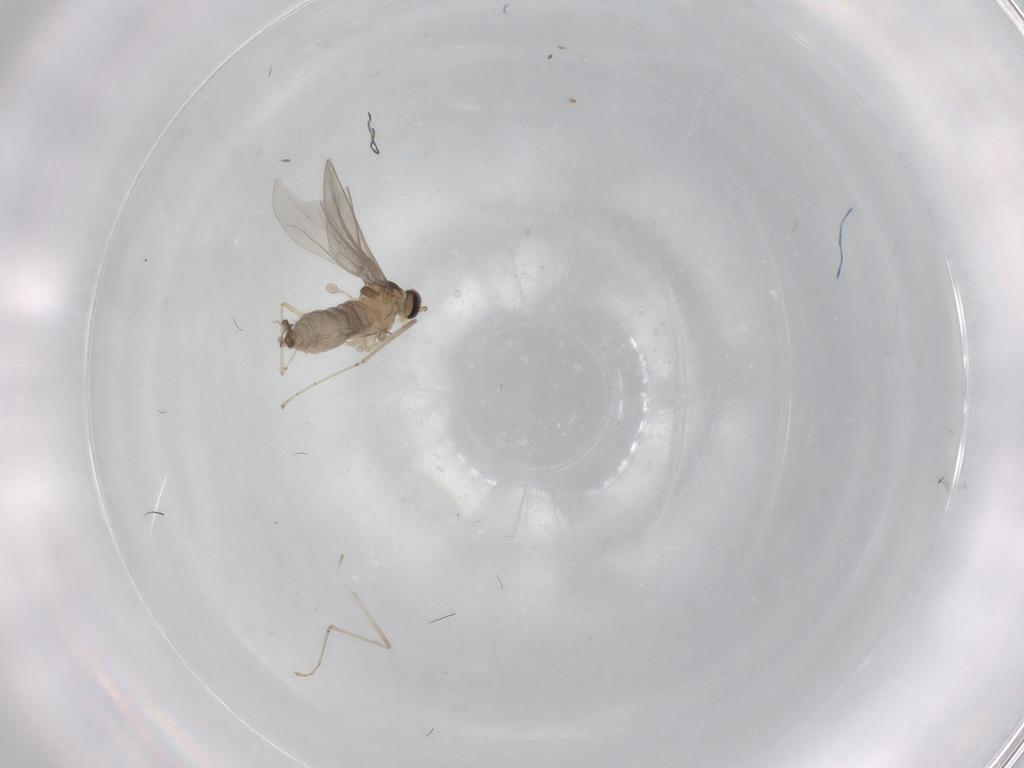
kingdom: Animalia
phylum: Arthropoda
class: Insecta
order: Diptera
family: Cecidomyiidae
